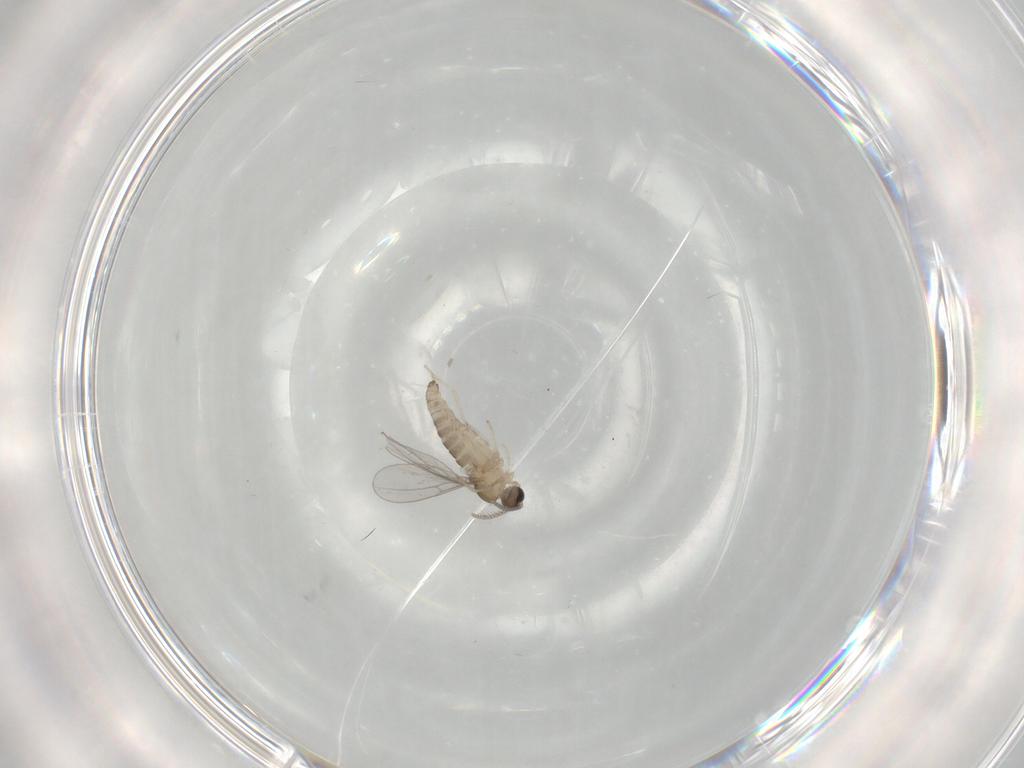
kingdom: Animalia
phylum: Arthropoda
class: Insecta
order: Diptera
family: Cecidomyiidae
